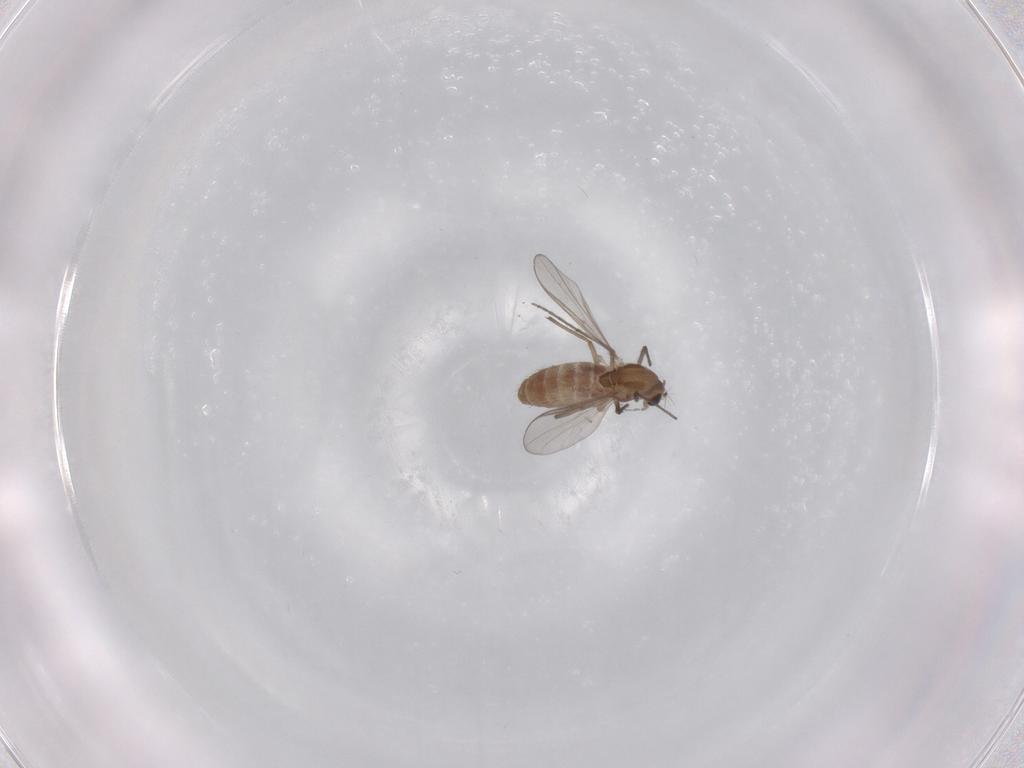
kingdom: Animalia
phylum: Arthropoda
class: Insecta
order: Diptera
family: Chironomidae
